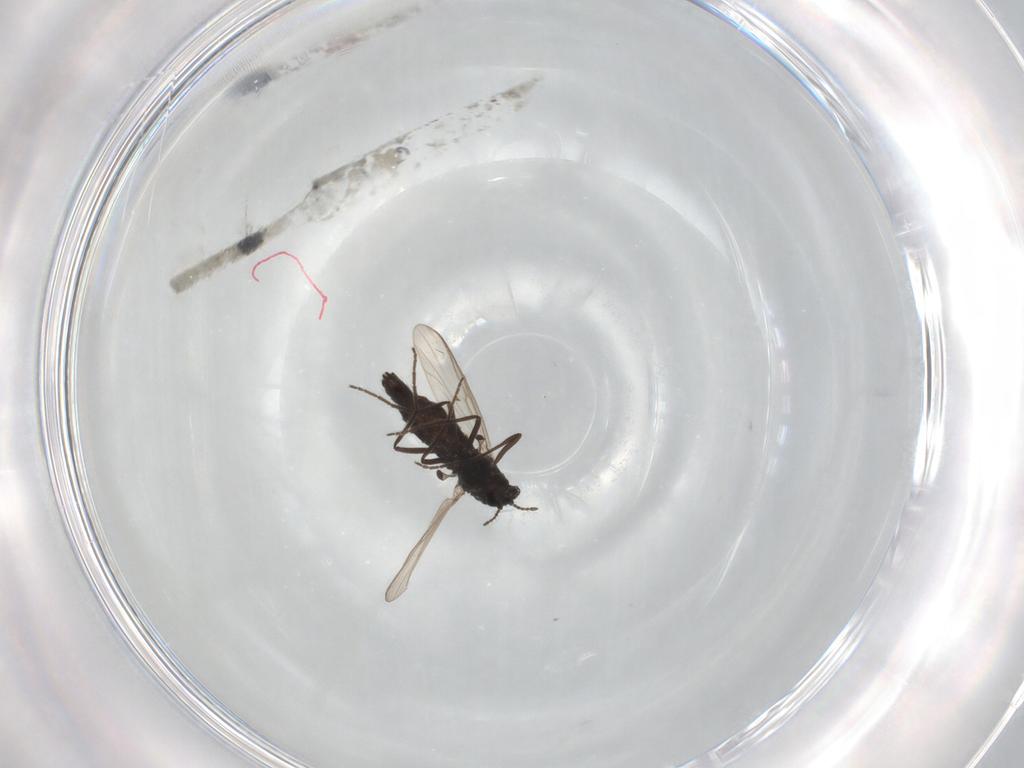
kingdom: Animalia
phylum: Arthropoda
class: Insecta
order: Diptera
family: Chironomidae
